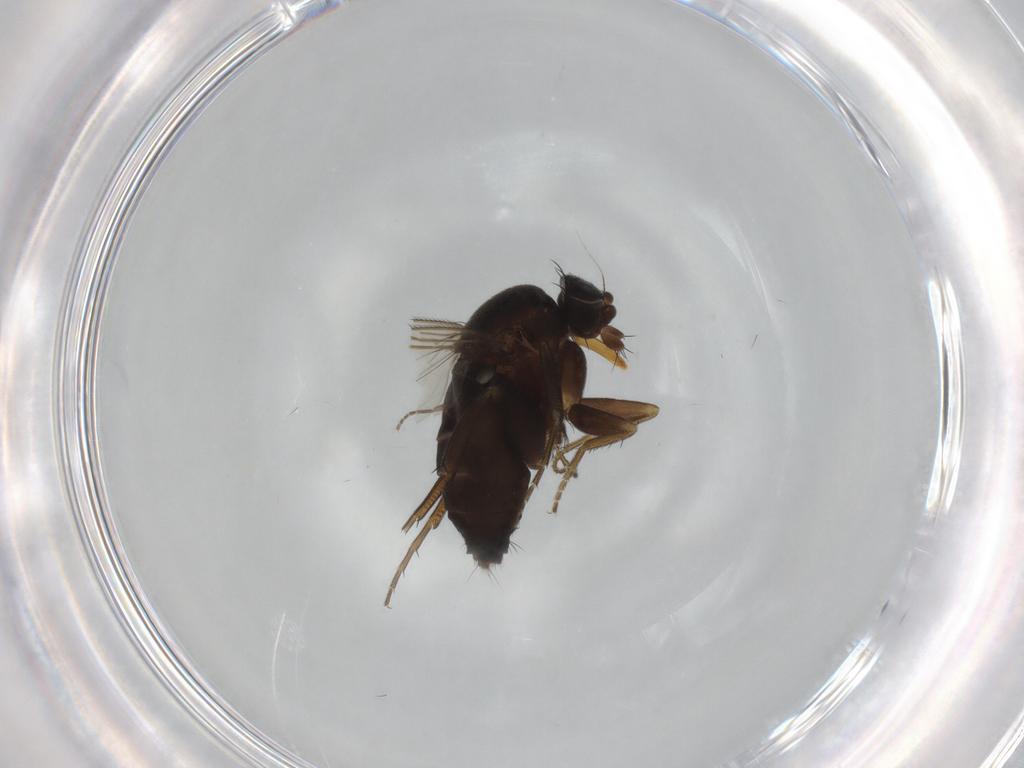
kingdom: Animalia
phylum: Arthropoda
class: Insecta
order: Diptera
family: Phoridae
